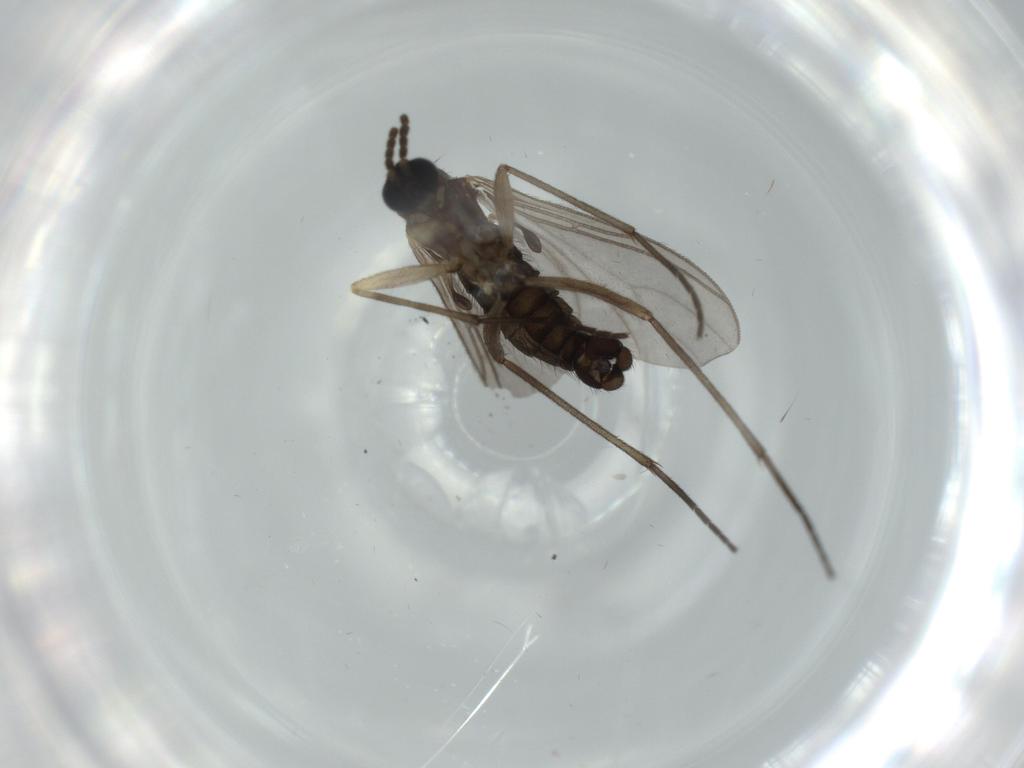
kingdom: Animalia
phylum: Arthropoda
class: Insecta
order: Diptera
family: Sciaridae
